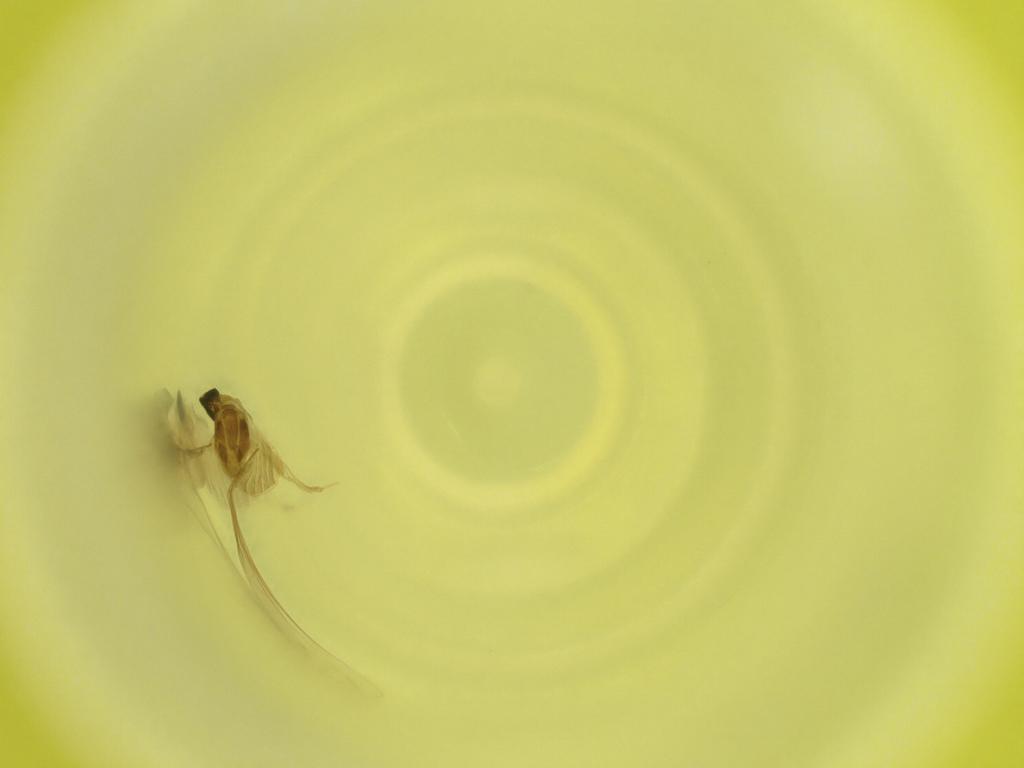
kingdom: Animalia
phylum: Arthropoda
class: Insecta
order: Diptera
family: Cecidomyiidae
